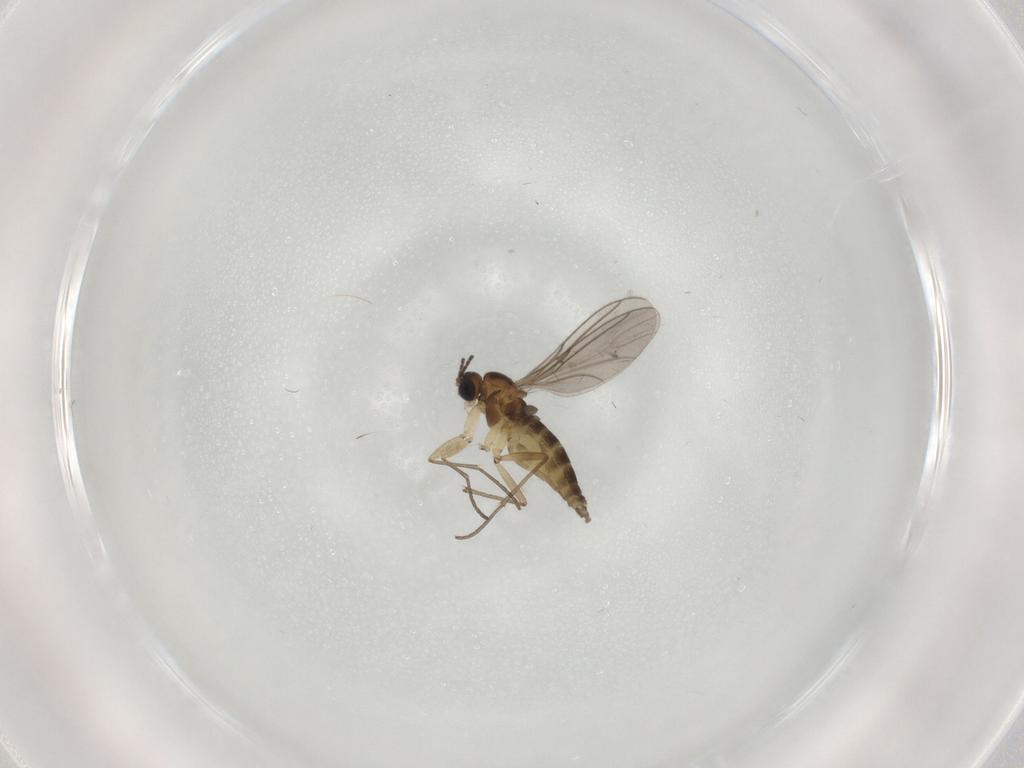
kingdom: Animalia
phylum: Arthropoda
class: Insecta
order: Diptera
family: Sciaridae
